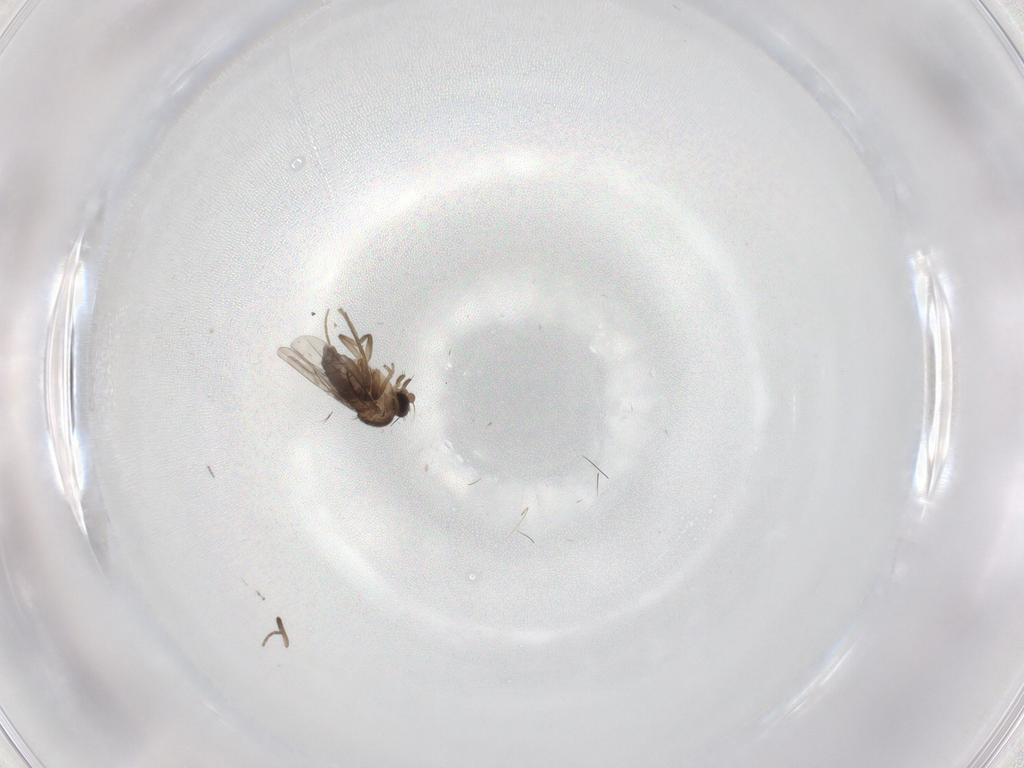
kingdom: Animalia
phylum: Arthropoda
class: Insecta
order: Diptera
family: Cecidomyiidae
